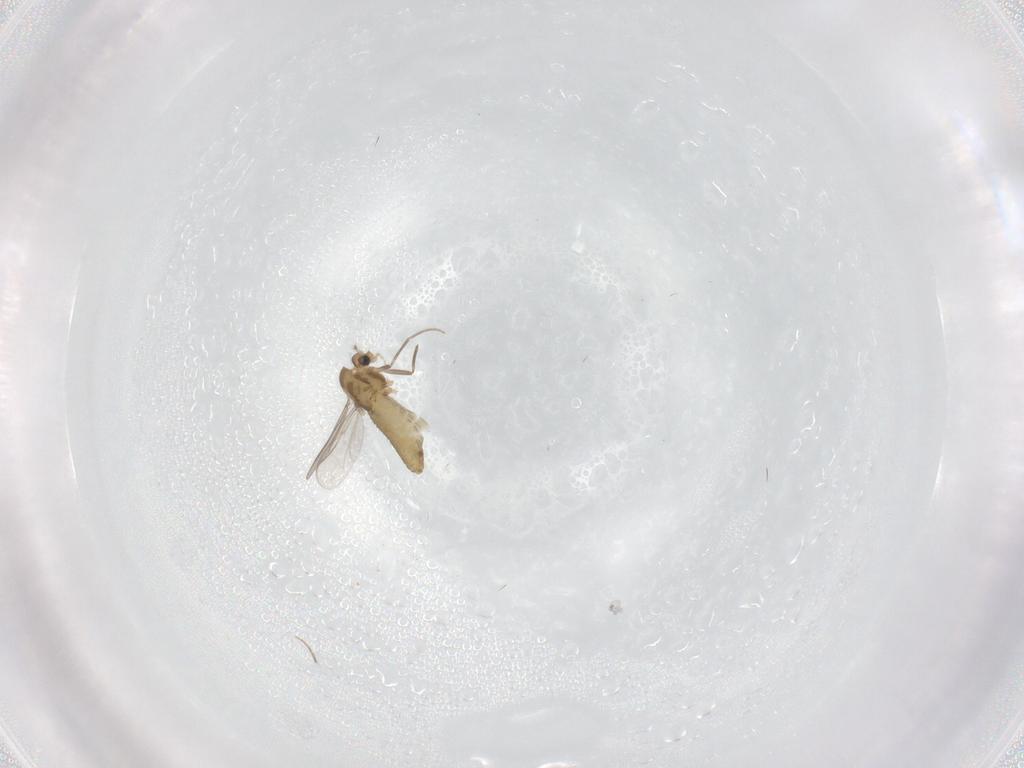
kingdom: Animalia
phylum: Arthropoda
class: Insecta
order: Diptera
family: Chironomidae
